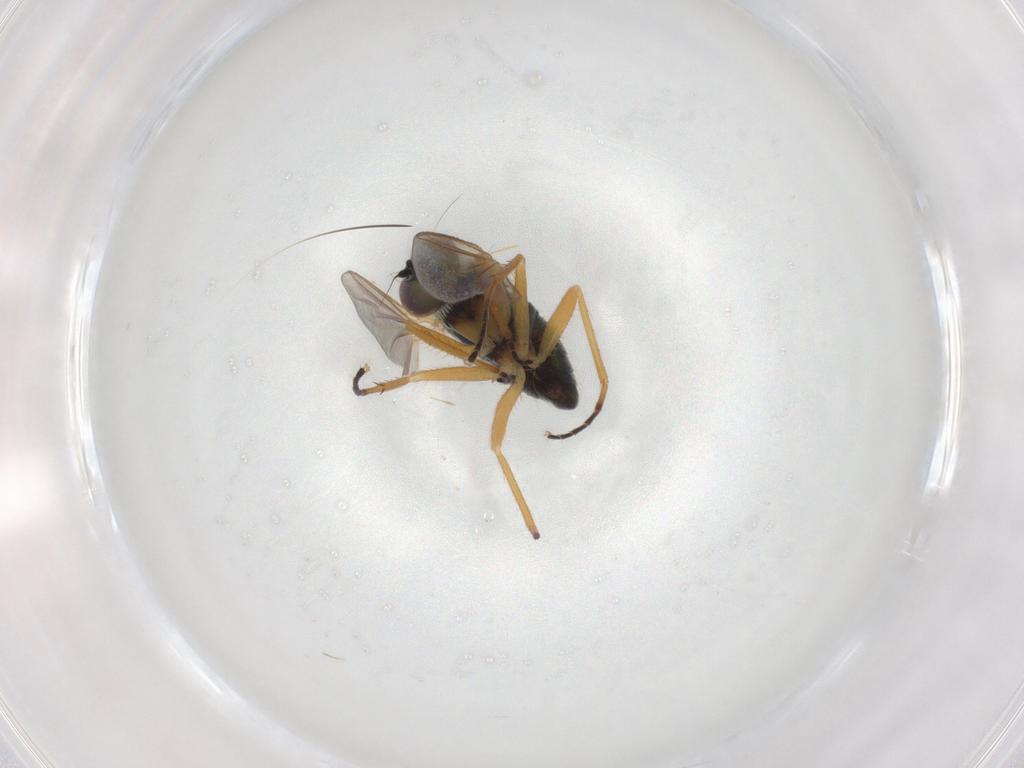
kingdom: Animalia
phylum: Arthropoda
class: Insecta
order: Diptera
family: Dolichopodidae
